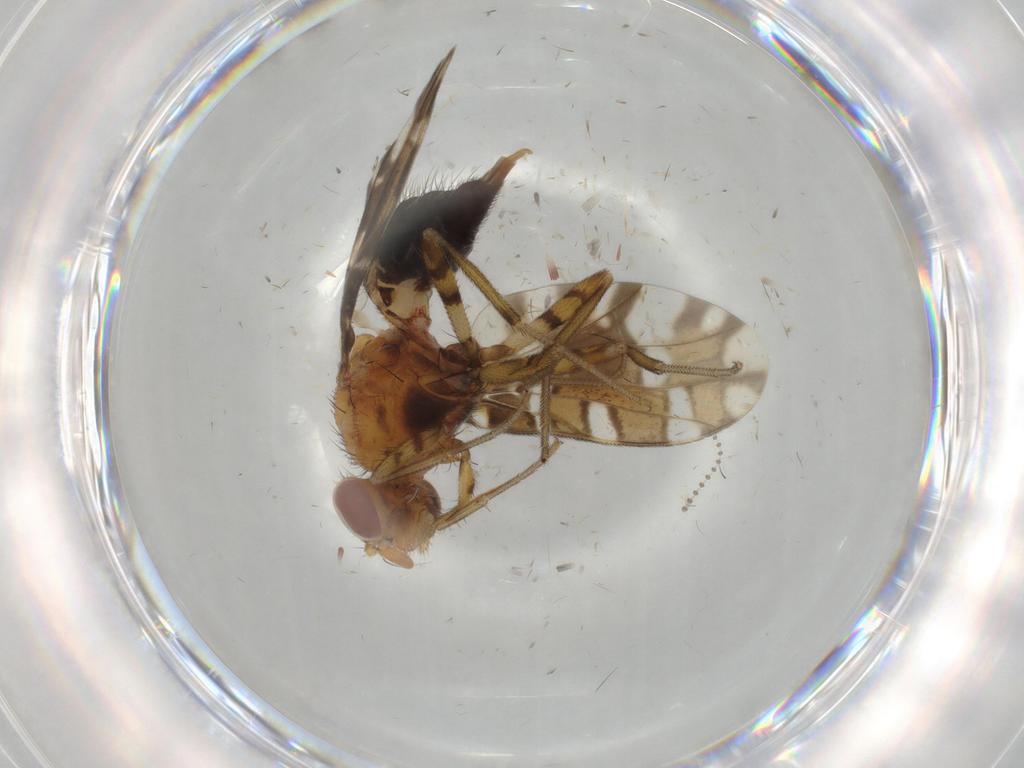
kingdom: Animalia
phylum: Arthropoda
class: Insecta
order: Diptera
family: Ulidiidae
